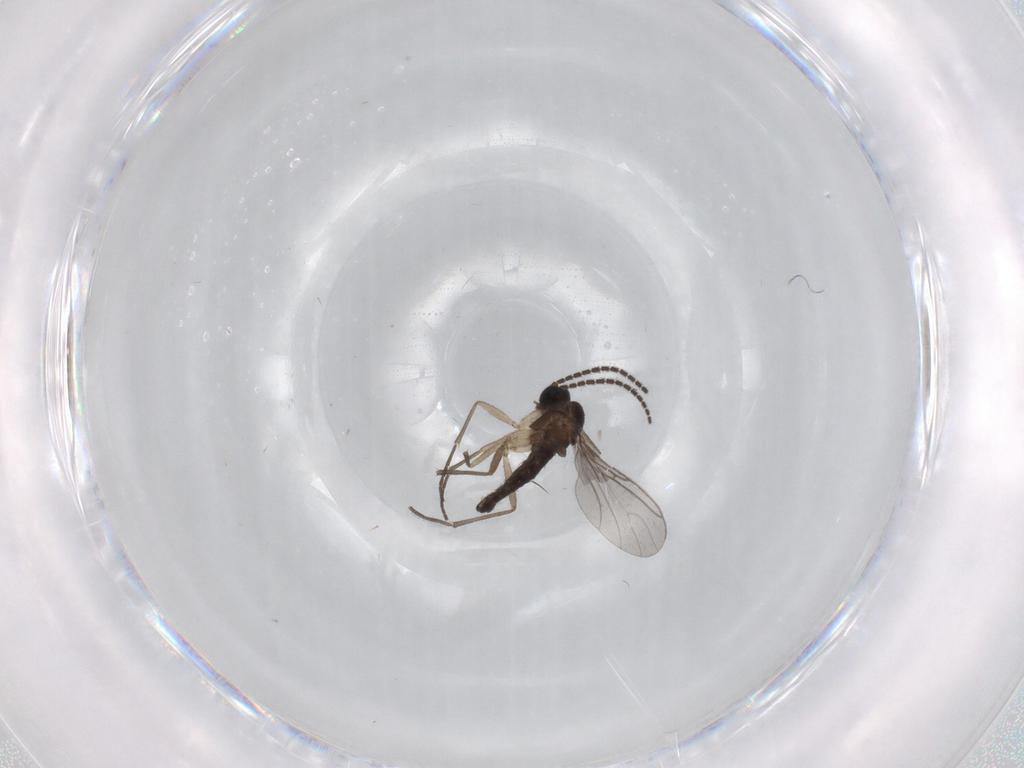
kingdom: Animalia
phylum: Arthropoda
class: Insecta
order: Diptera
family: Sciaridae
